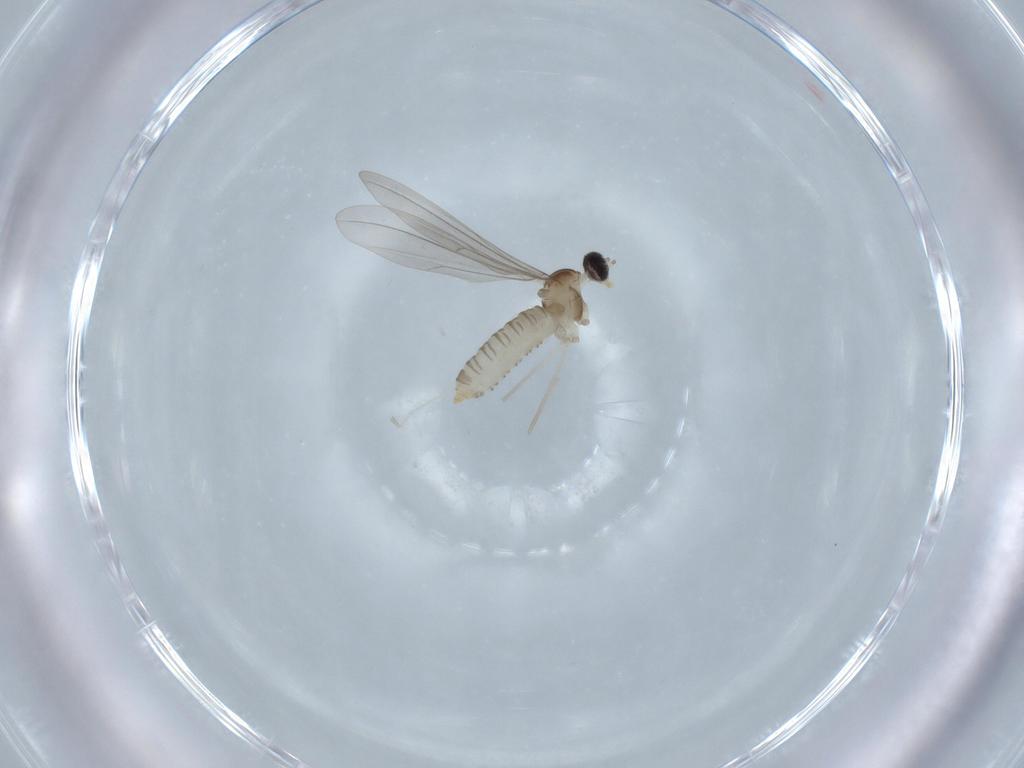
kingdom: Animalia
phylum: Arthropoda
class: Insecta
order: Diptera
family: Cecidomyiidae
